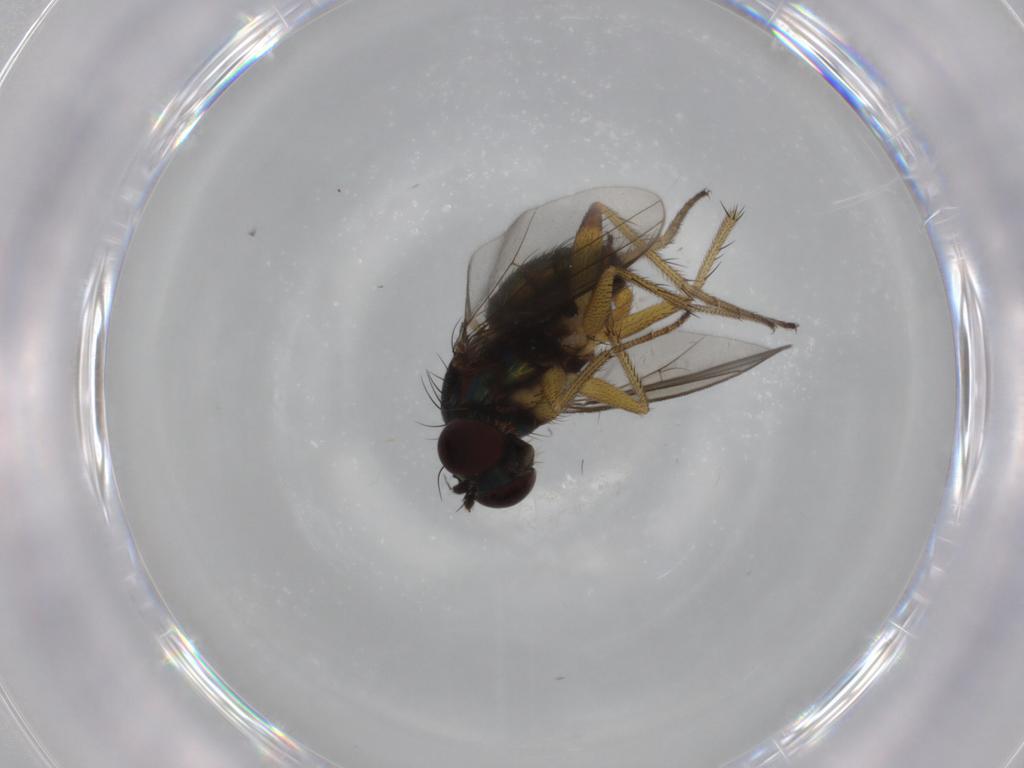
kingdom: Animalia
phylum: Arthropoda
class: Insecta
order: Diptera
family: Dolichopodidae
